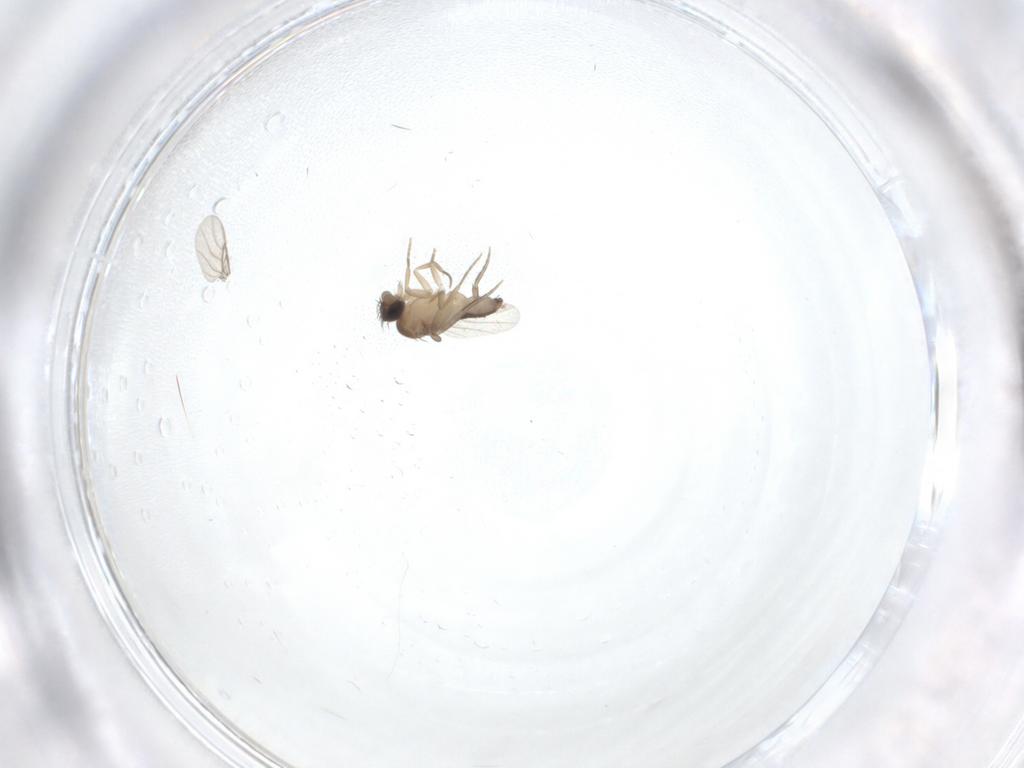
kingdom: Animalia
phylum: Arthropoda
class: Insecta
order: Diptera
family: Phoridae
